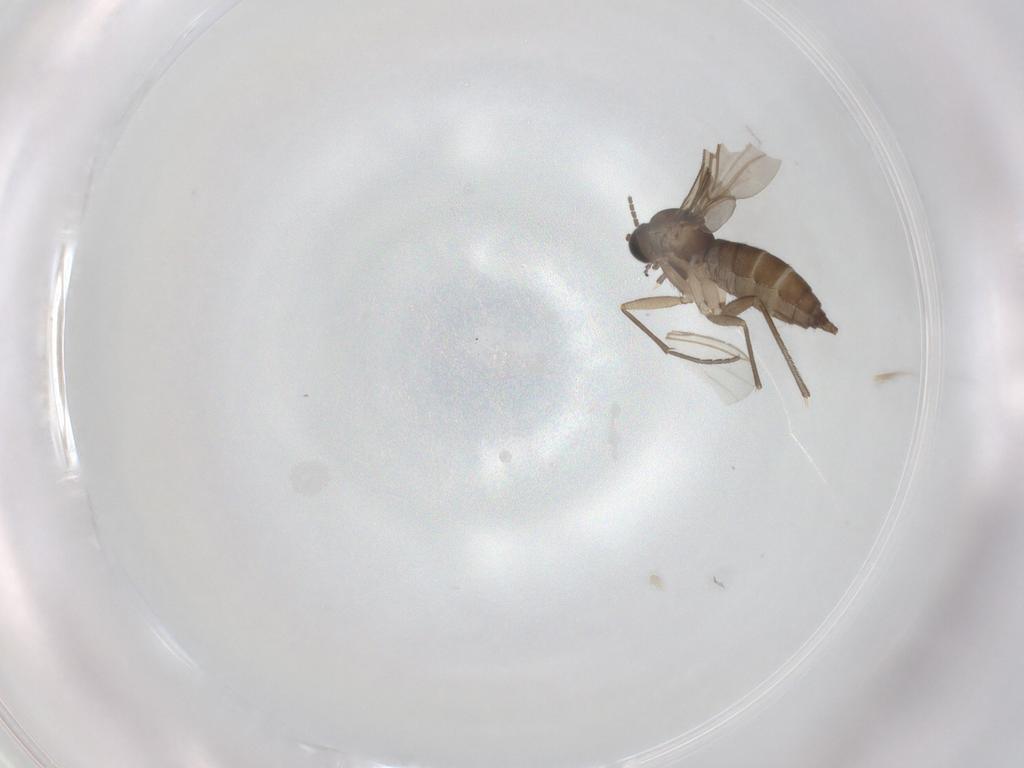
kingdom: Animalia
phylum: Arthropoda
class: Insecta
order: Diptera
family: Sciaridae
